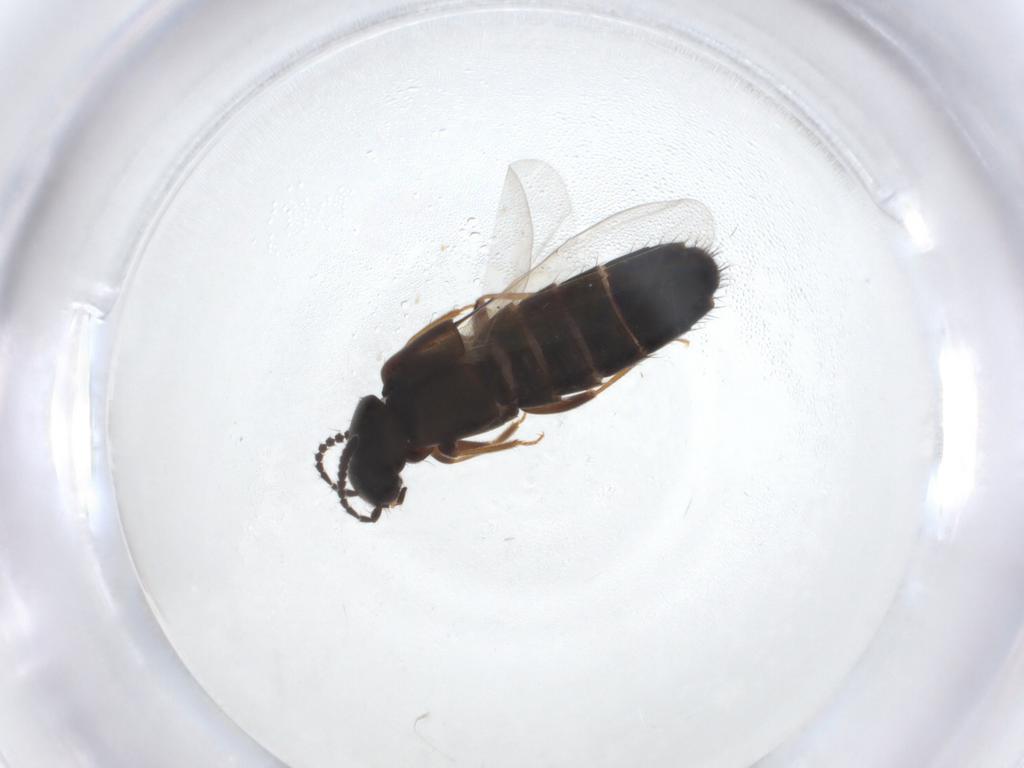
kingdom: Animalia
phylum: Arthropoda
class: Insecta
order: Coleoptera
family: Staphylinidae
